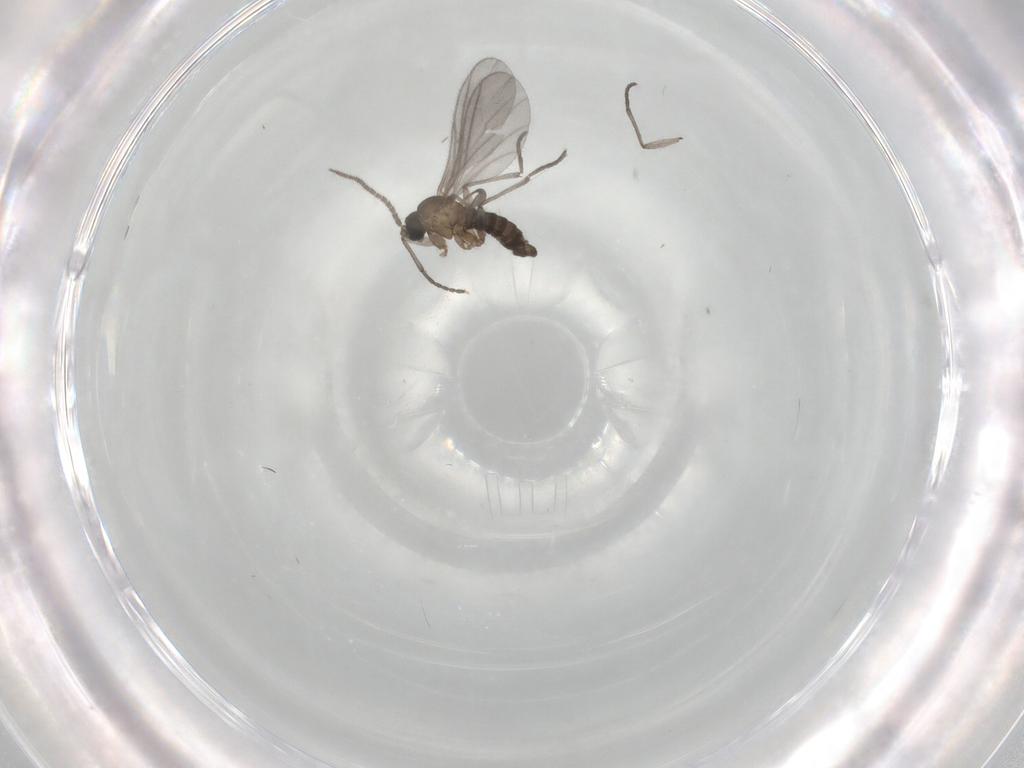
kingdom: Animalia
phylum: Arthropoda
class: Insecta
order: Diptera
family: Sciaridae
